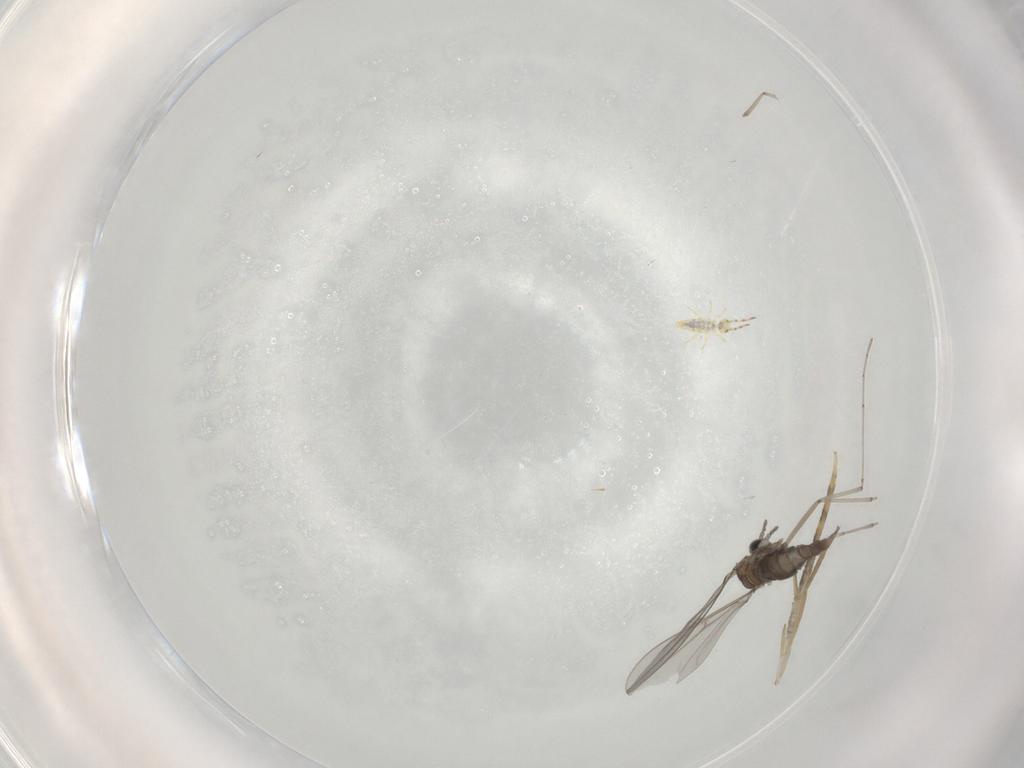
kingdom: Animalia
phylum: Arthropoda
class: Insecta
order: Diptera
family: Cecidomyiidae
